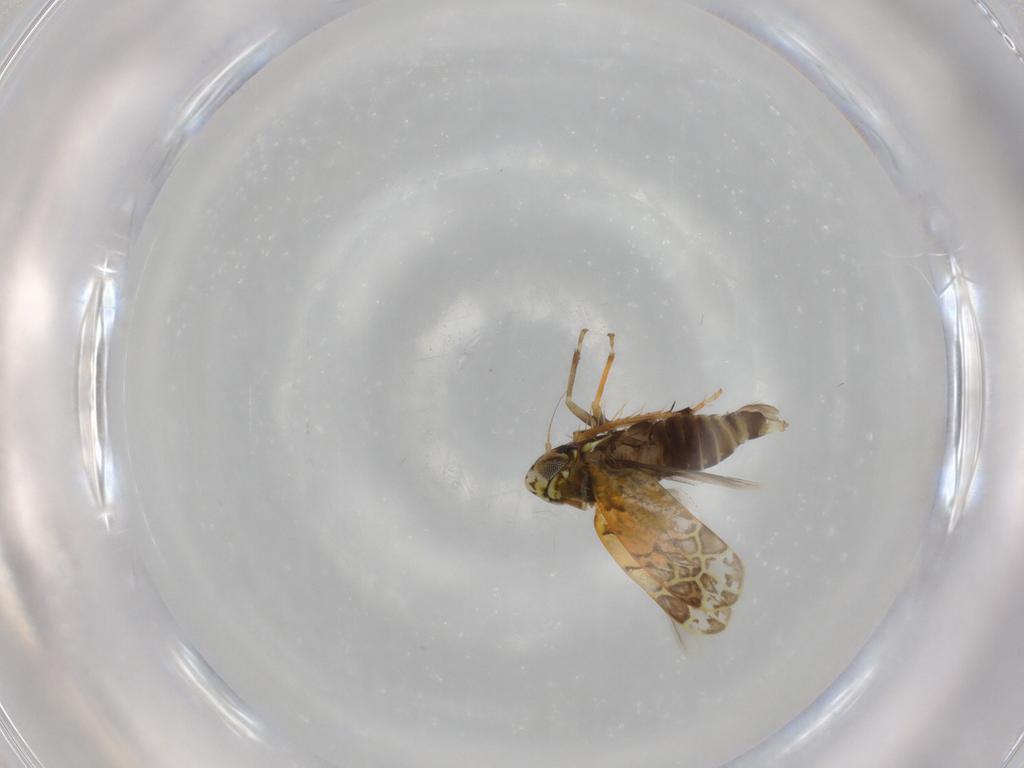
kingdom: Animalia
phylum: Arthropoda
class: Insecta
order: Hemiptera
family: Cicadellidae
